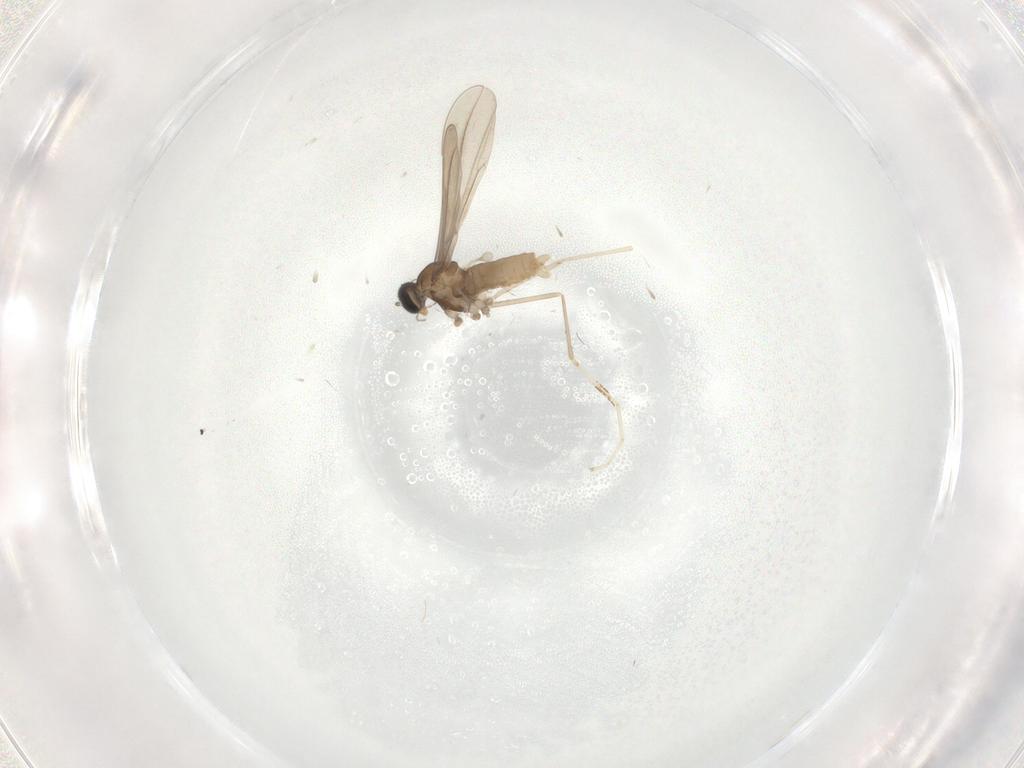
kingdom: Animalia
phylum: Arthropoda
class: Insecta
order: Diptera
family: Cecidomyiidae
